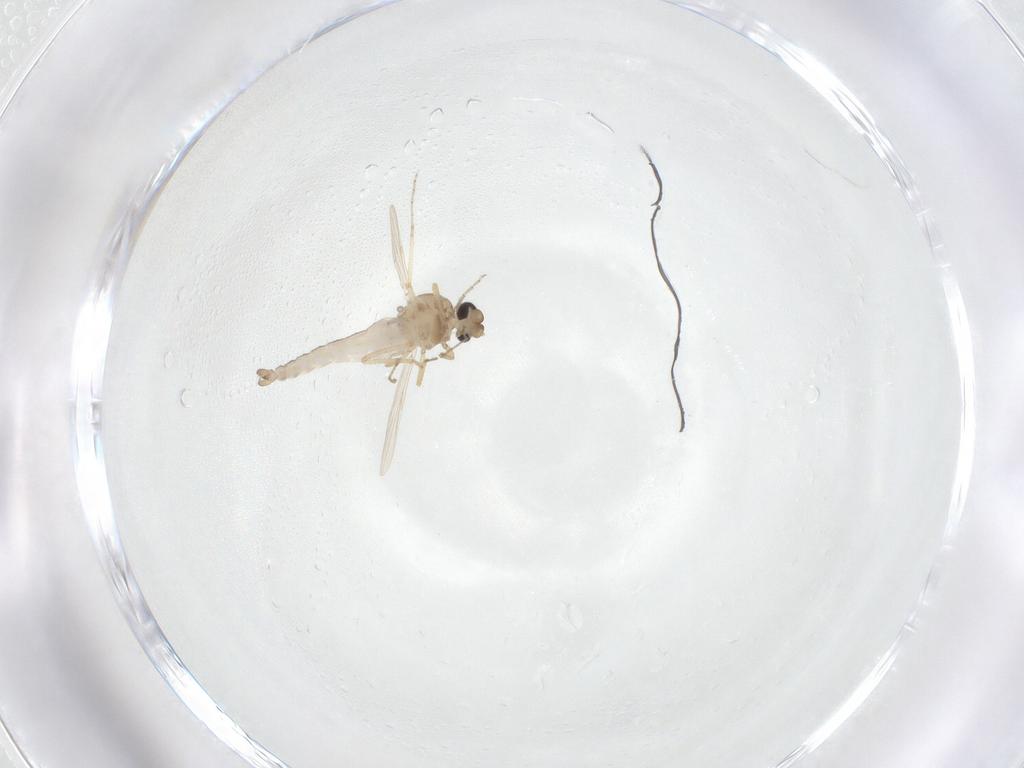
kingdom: Animalia
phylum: Arthropoda
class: Insecta
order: Diptera
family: Ceratopogonidae
